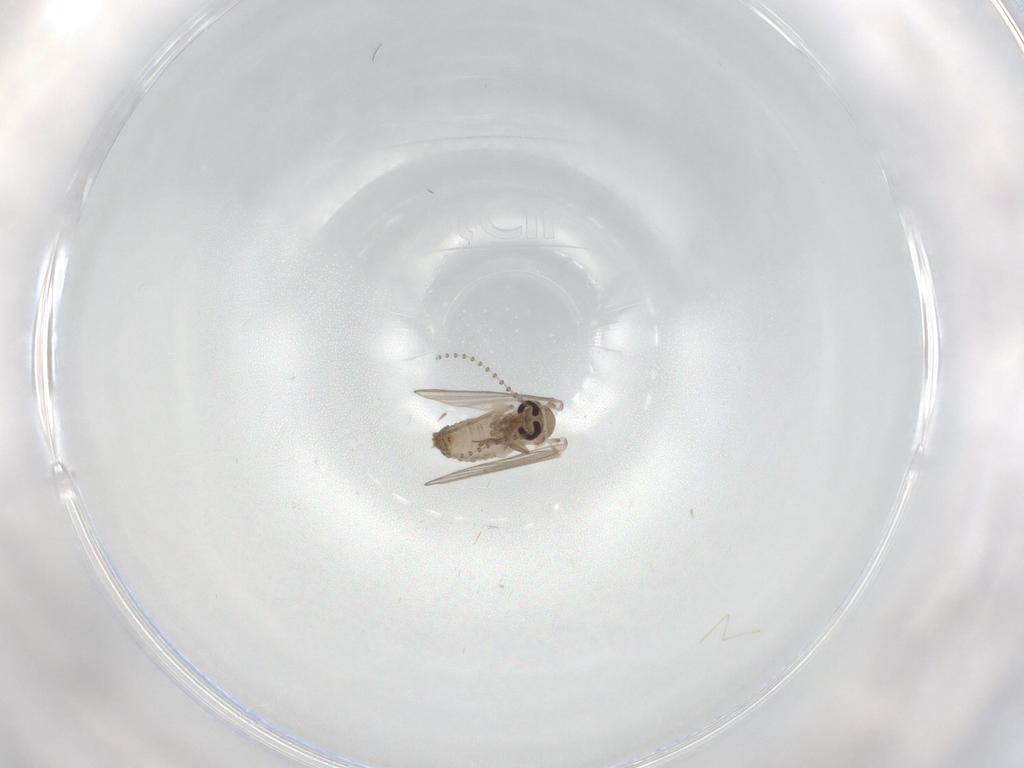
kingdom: Animalia
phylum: Arthropoda
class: Insecta
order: Diptera
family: Psychodidae
